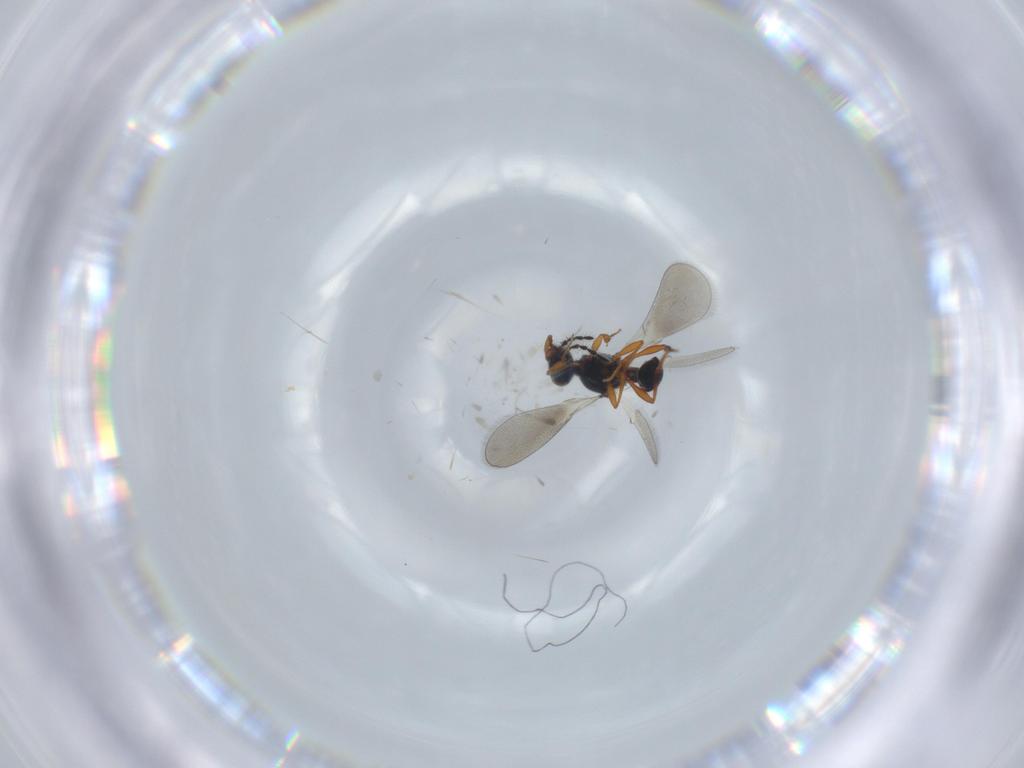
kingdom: Animalia
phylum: Arthropoda
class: Insecta
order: Hymenoptera
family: Platygastridae
